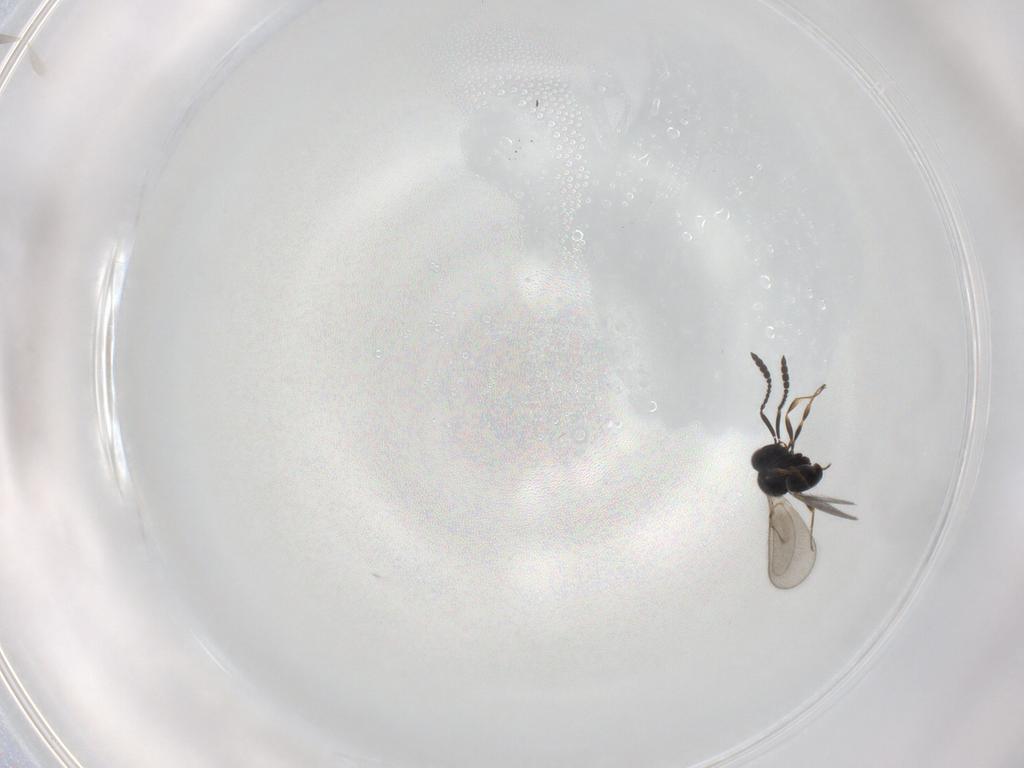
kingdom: Animalia
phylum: Arthropoda
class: Insecta
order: Hymenoptera
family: Scelionidae
